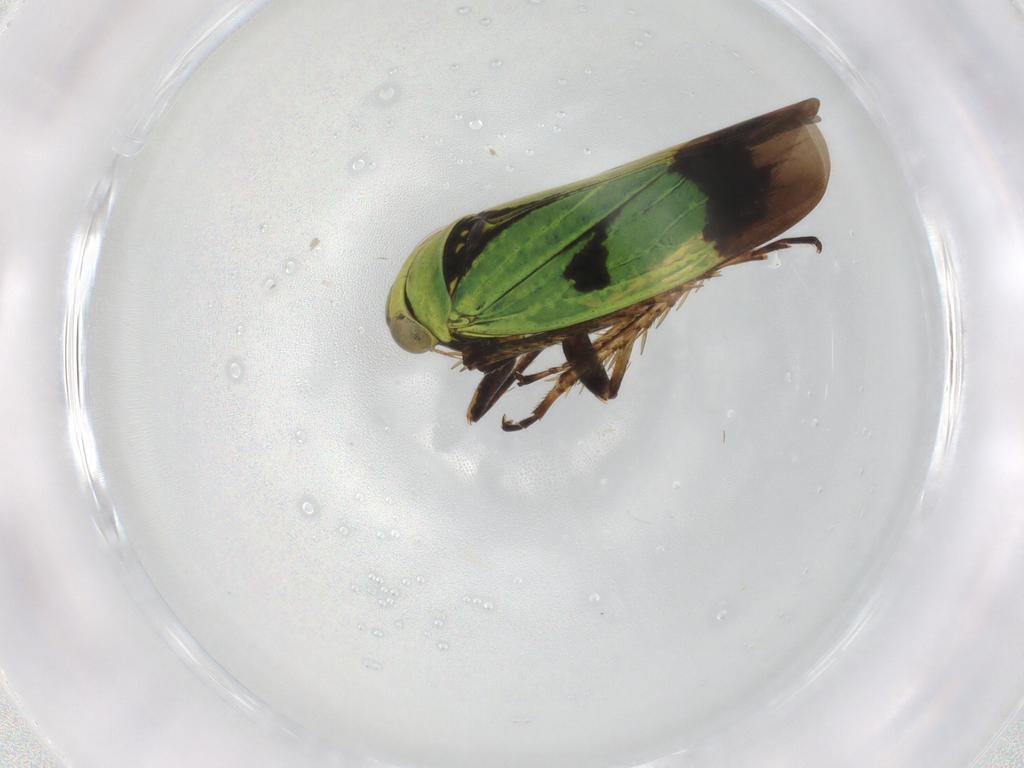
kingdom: Animalia
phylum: Arthropoda
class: Insecta
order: Hemiptera
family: Cicadellidae
